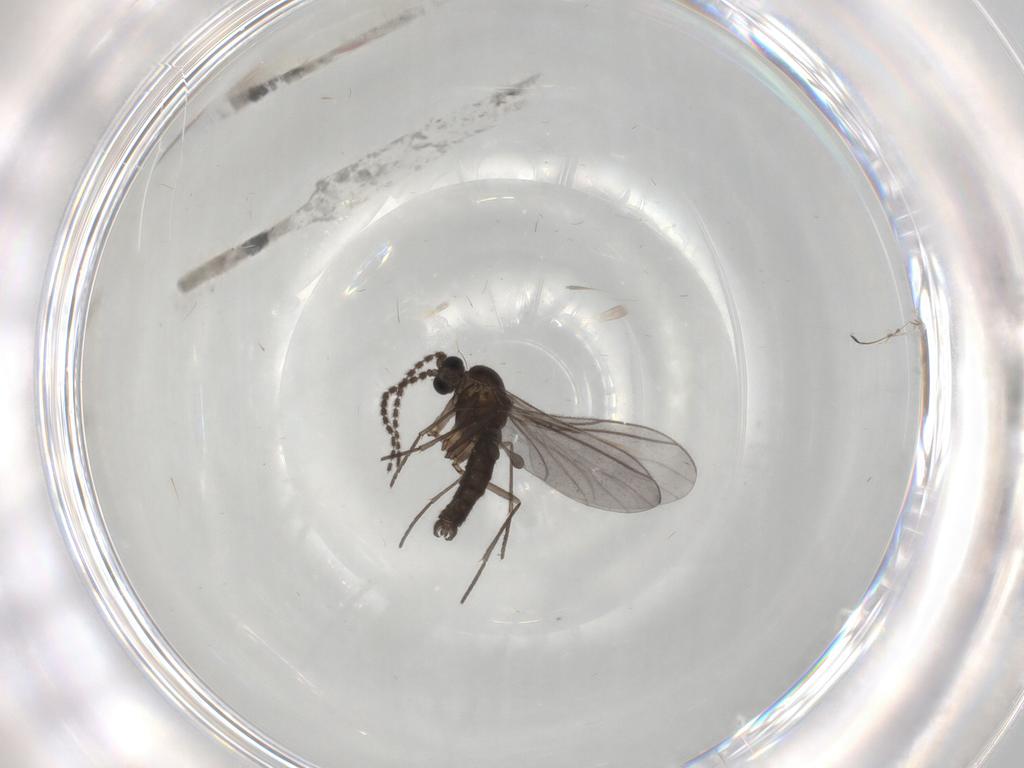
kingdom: Animalia
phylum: Arthropoda
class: Insecta
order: Diptera
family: Sciaridae
